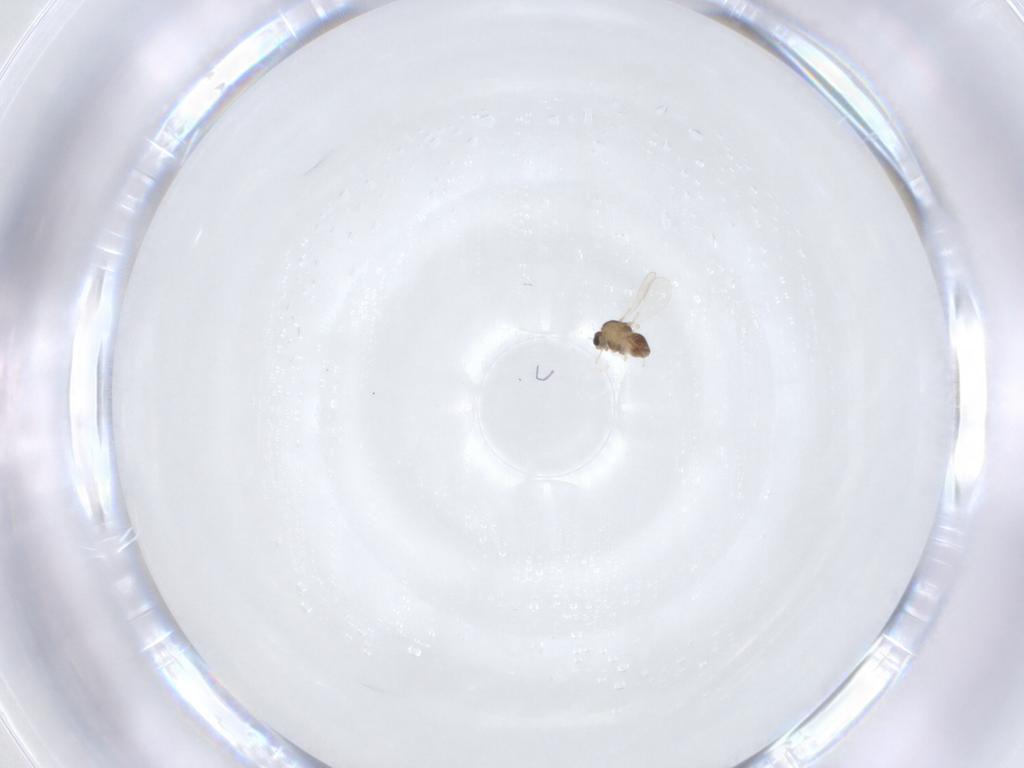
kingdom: Animalia
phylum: Arthropoda
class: Insecta
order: Diptera
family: Chironomidae
